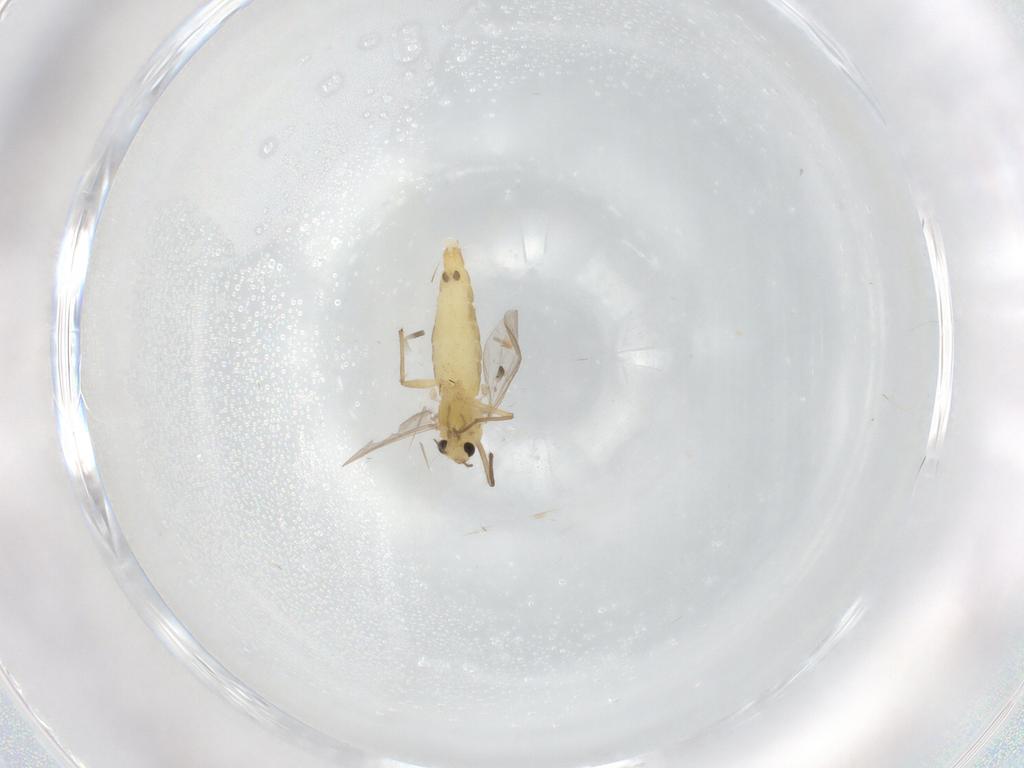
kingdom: Animalia
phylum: Arthropoda
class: Insecta
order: Diptera
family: Chironomidae
